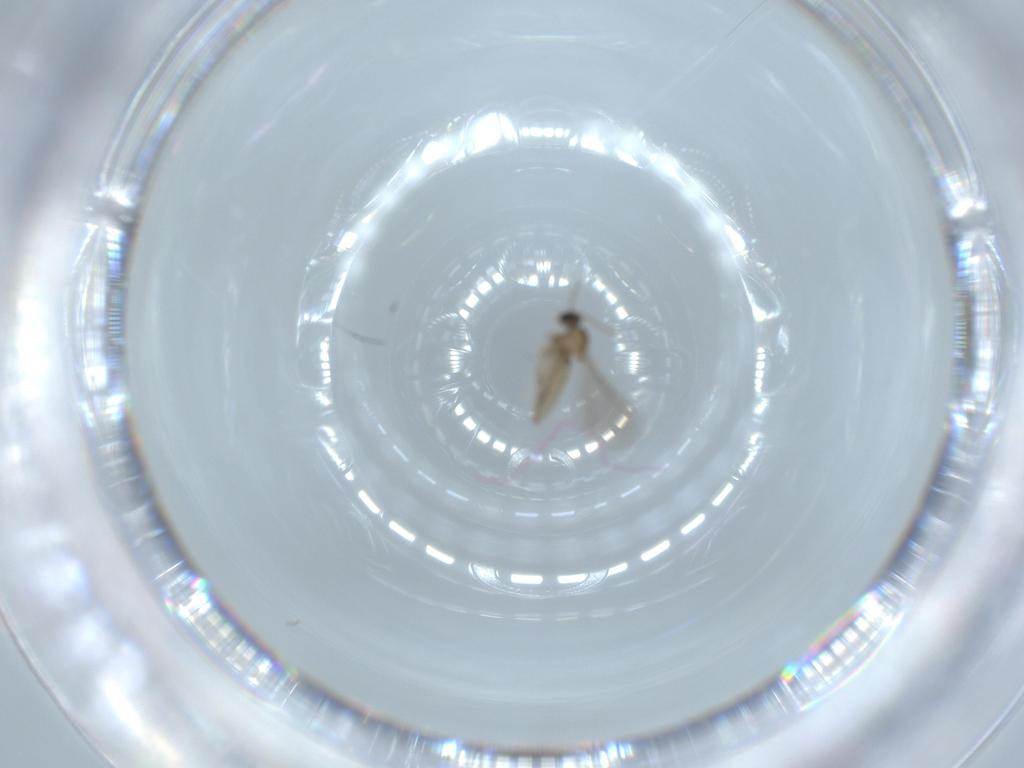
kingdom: Animalia
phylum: Arthropoda
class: Insecta
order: Diptera
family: Cecidomyiidae
